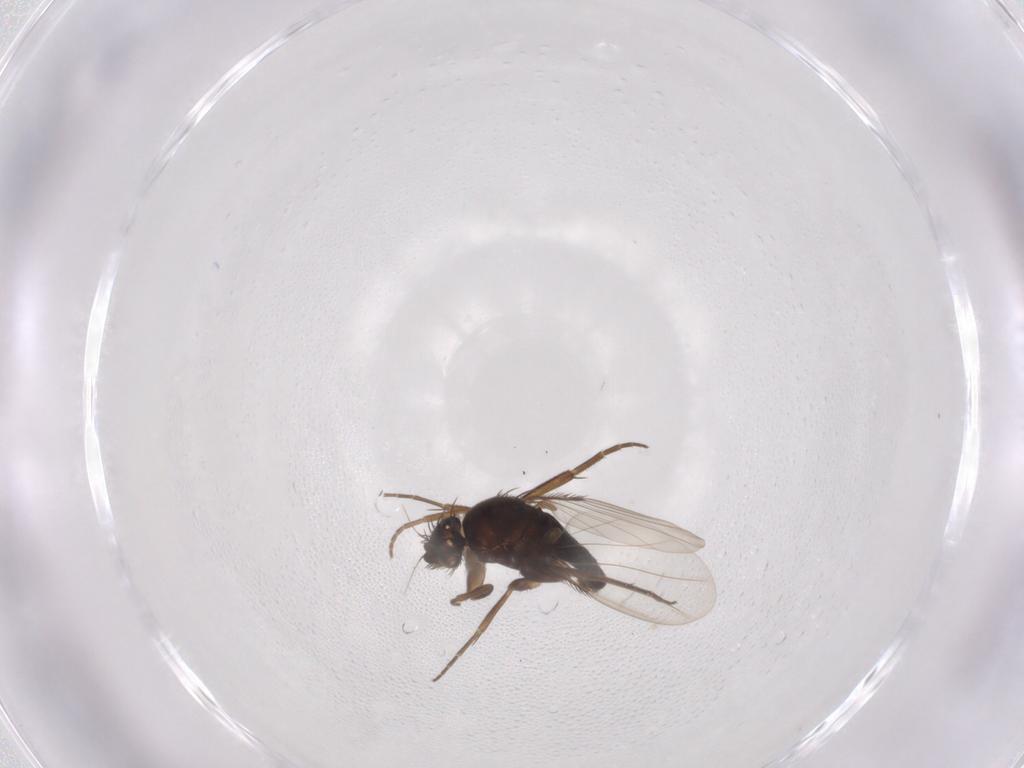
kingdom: Animalia
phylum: Arthropoda
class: Insecta
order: Diptera
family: Phoridae
